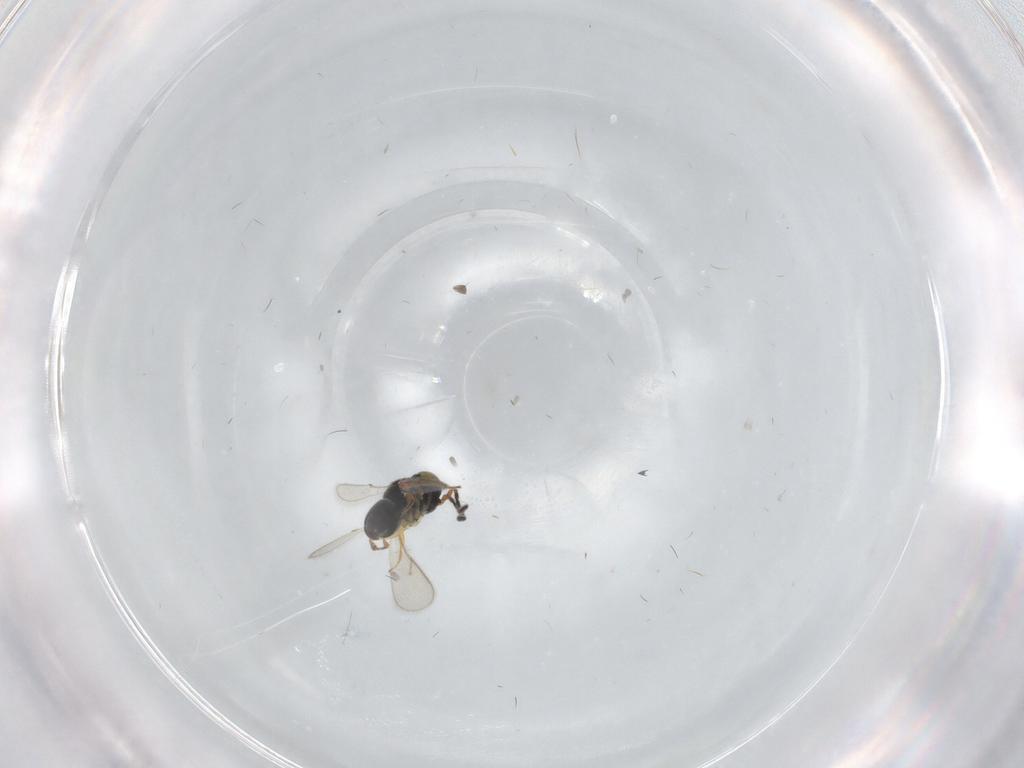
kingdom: Animalia
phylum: Arthropoda
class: Insecta
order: Hymenoptera
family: Scelionidae
